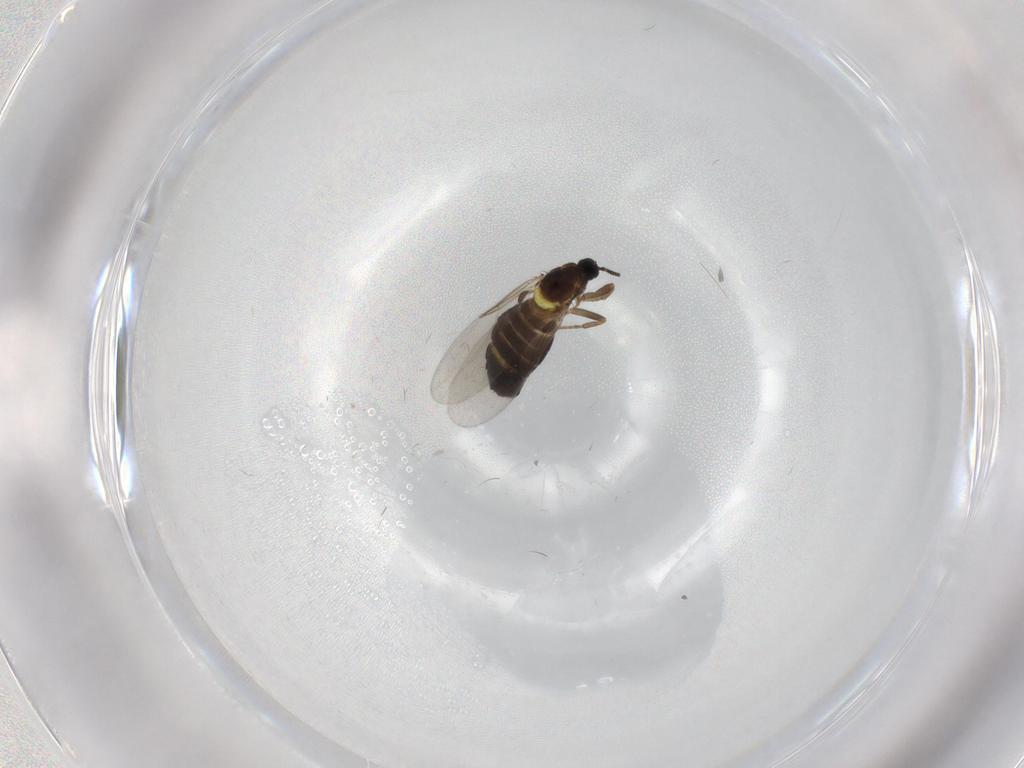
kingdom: Animalia
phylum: Arthropoda
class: Insecta
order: Diptera
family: Scatopsidae
